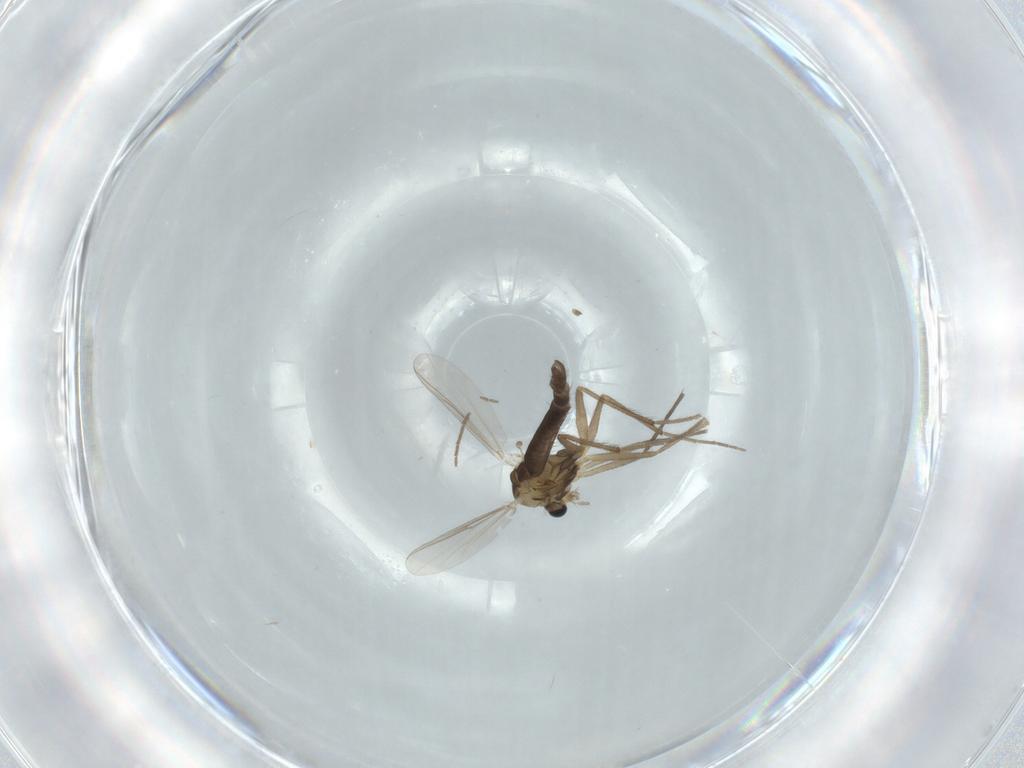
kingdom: Animalia
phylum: Arthropoda
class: Insecta
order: Diptera
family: Chironomidae
